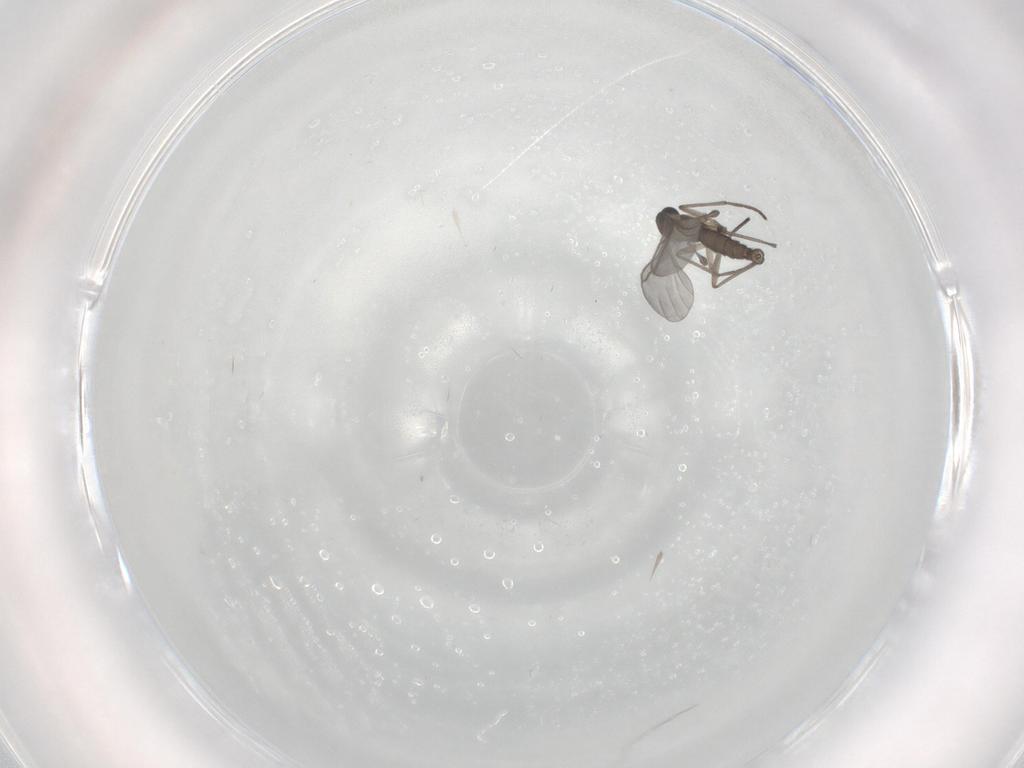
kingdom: Animalia
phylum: Arthropoda
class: Insecta
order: Diptera
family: Sciaridae
